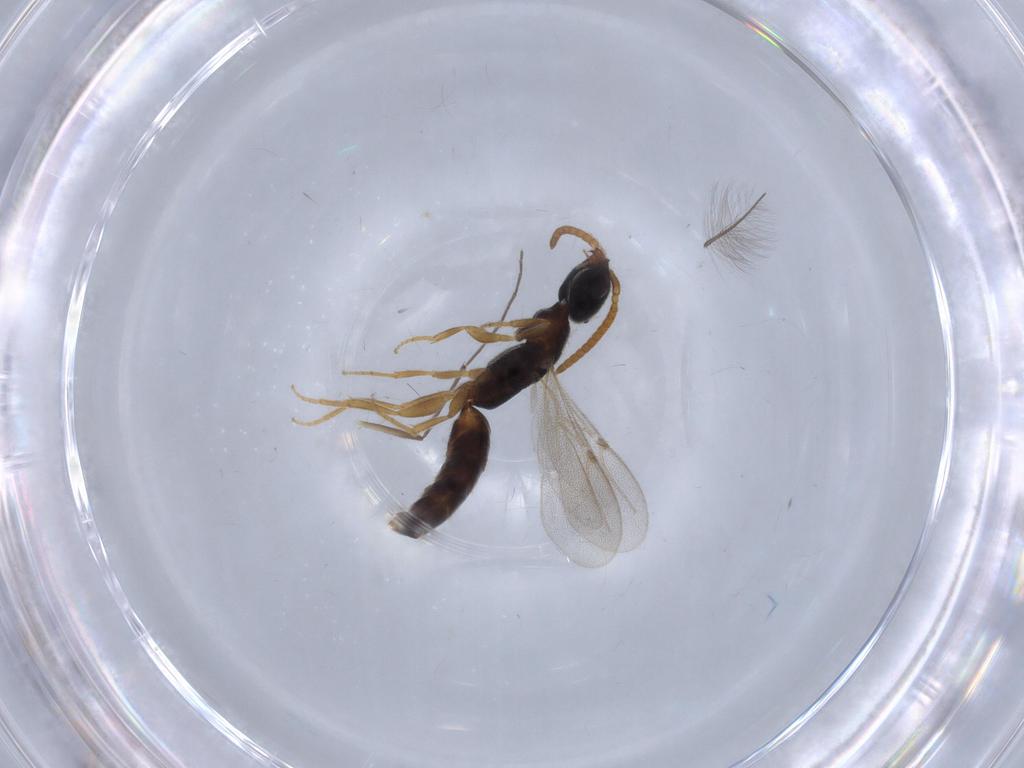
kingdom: Animalia
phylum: Arthropoda
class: Insecta
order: Hymenoptera
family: Bethylidae
